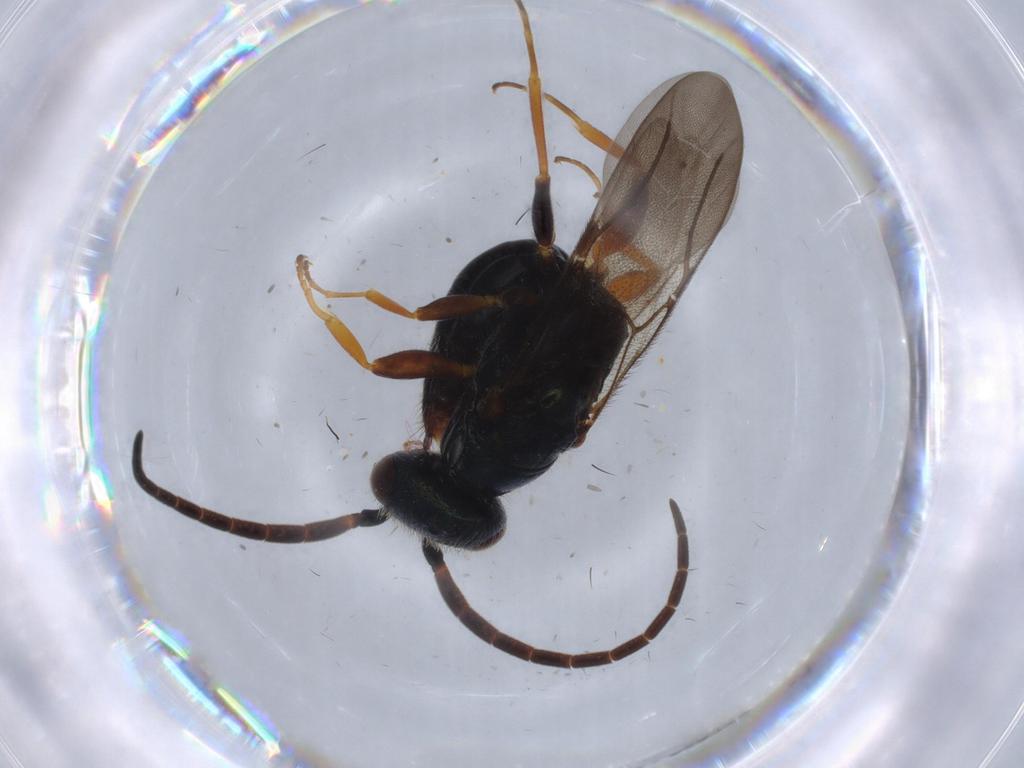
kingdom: Animalia
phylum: Arthropoda
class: Insecta
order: Hymenoptera
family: Bethylidae
